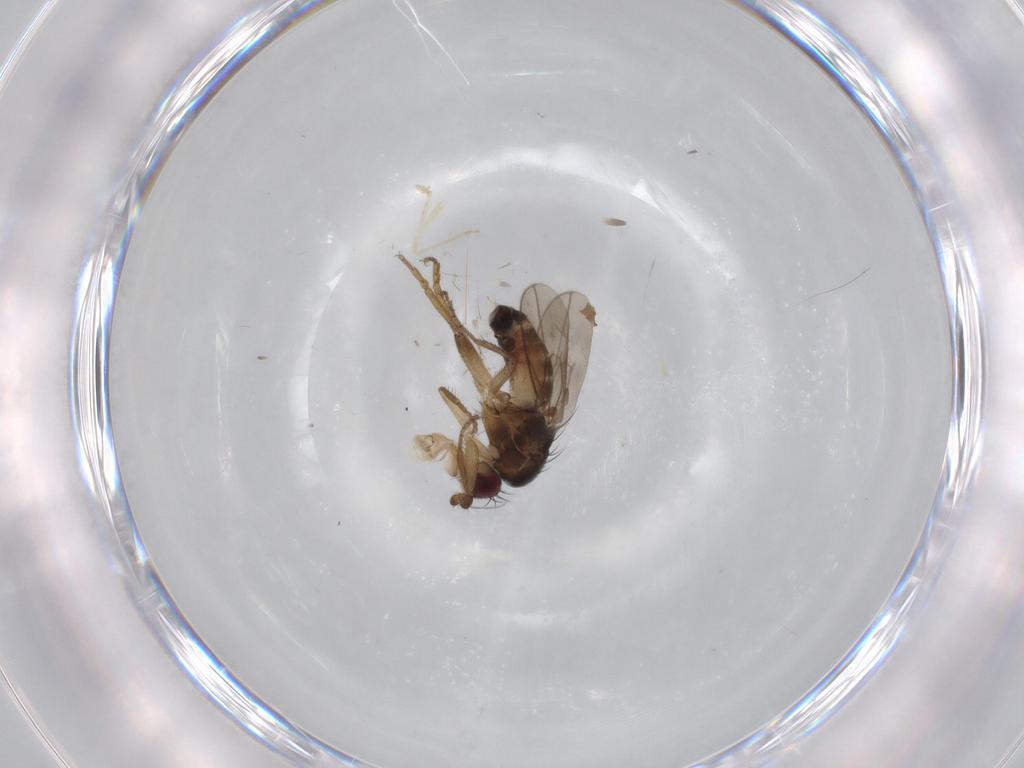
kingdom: Animalia
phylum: Arthropoda
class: Insecta
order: Diptera
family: Sphaeroceridae
